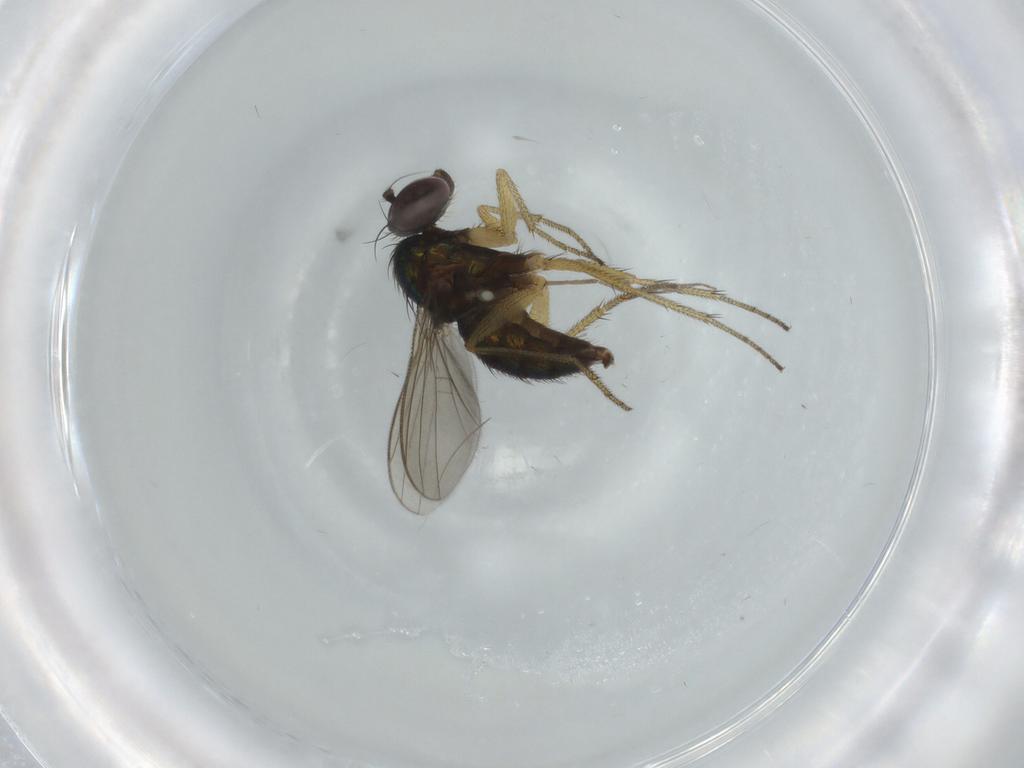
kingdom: Animalia
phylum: Arthropoda
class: Insecta
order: Diptera
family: Dolichopodidae
